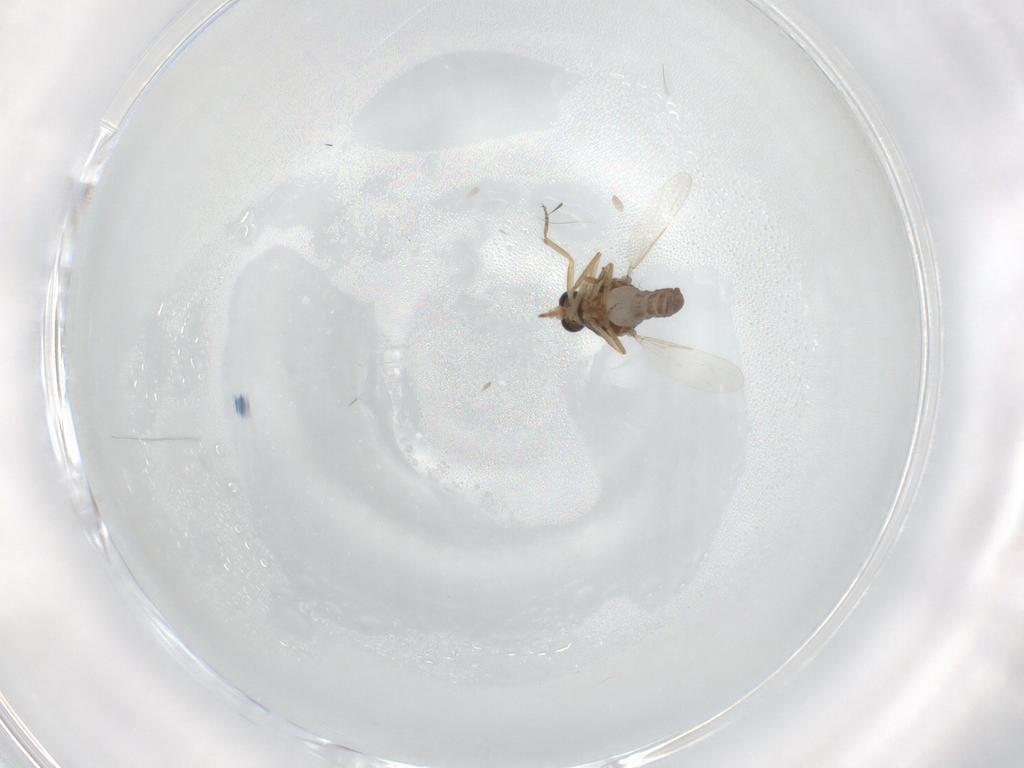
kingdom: Animalia
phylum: Arthropoda
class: Insecta
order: Diptera
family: Ceratopogonidae
